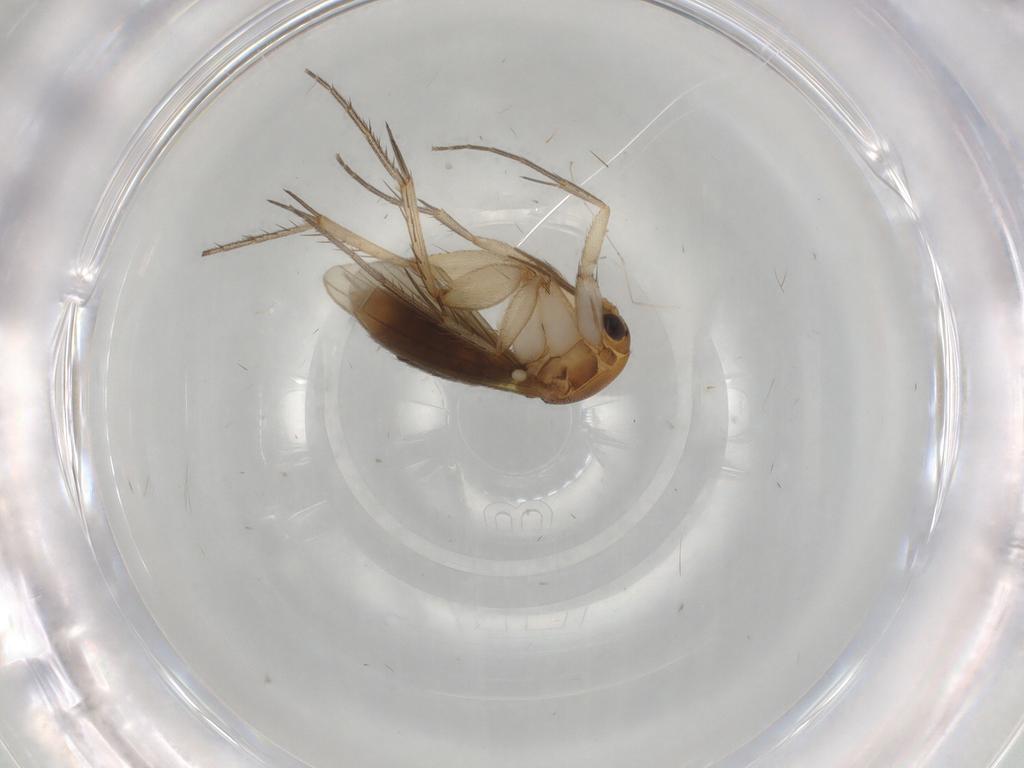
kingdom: Animalia
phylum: Arthropoda
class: Insecta
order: Diptera
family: Mycetophilidae
